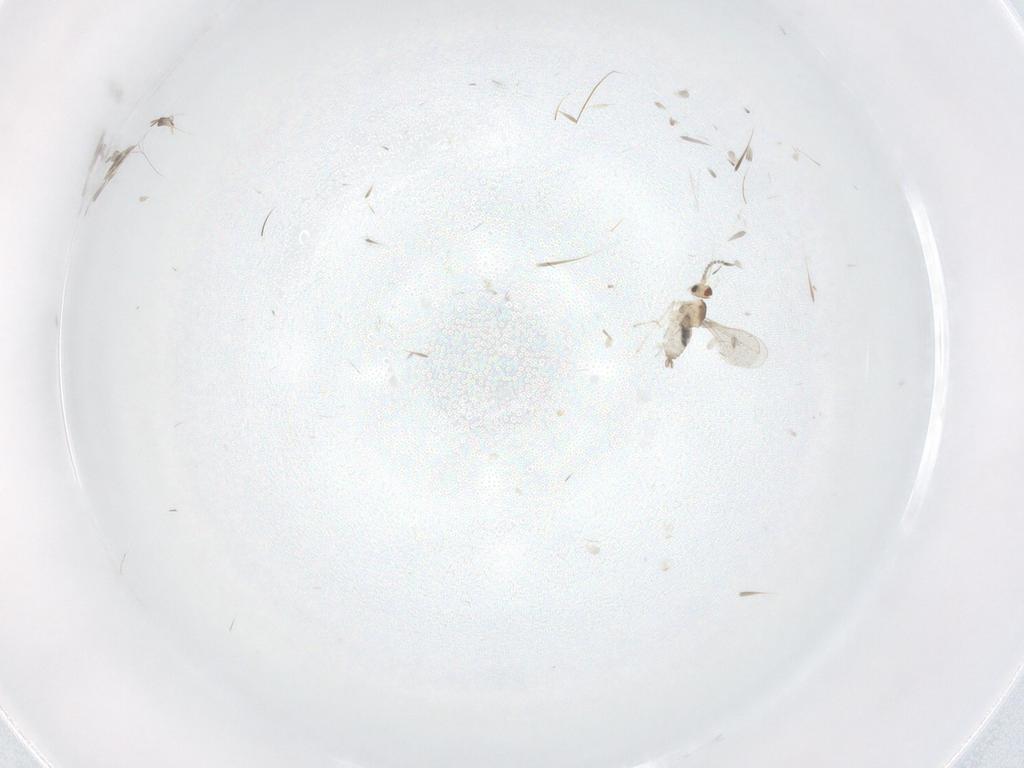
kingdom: Animalia
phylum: Arthropoda
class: Insecta
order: Diptera
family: Cecidomyiidae
